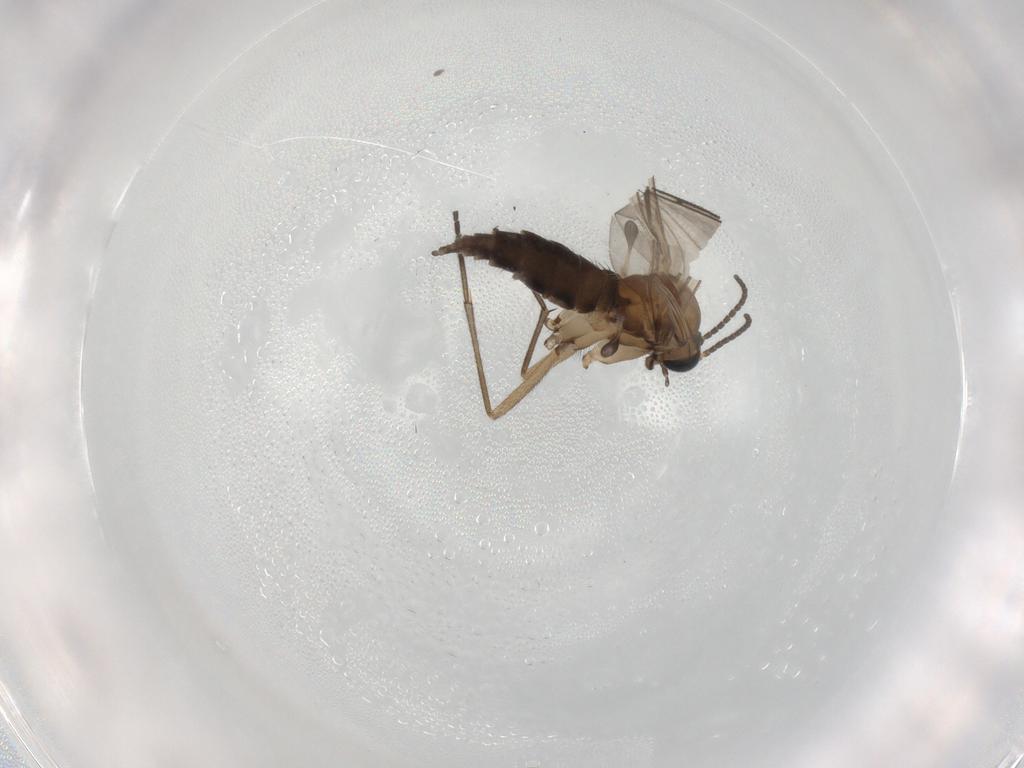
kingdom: Animalia
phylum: Arthropoda
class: Insecta
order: Diptera
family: Sciaridae
